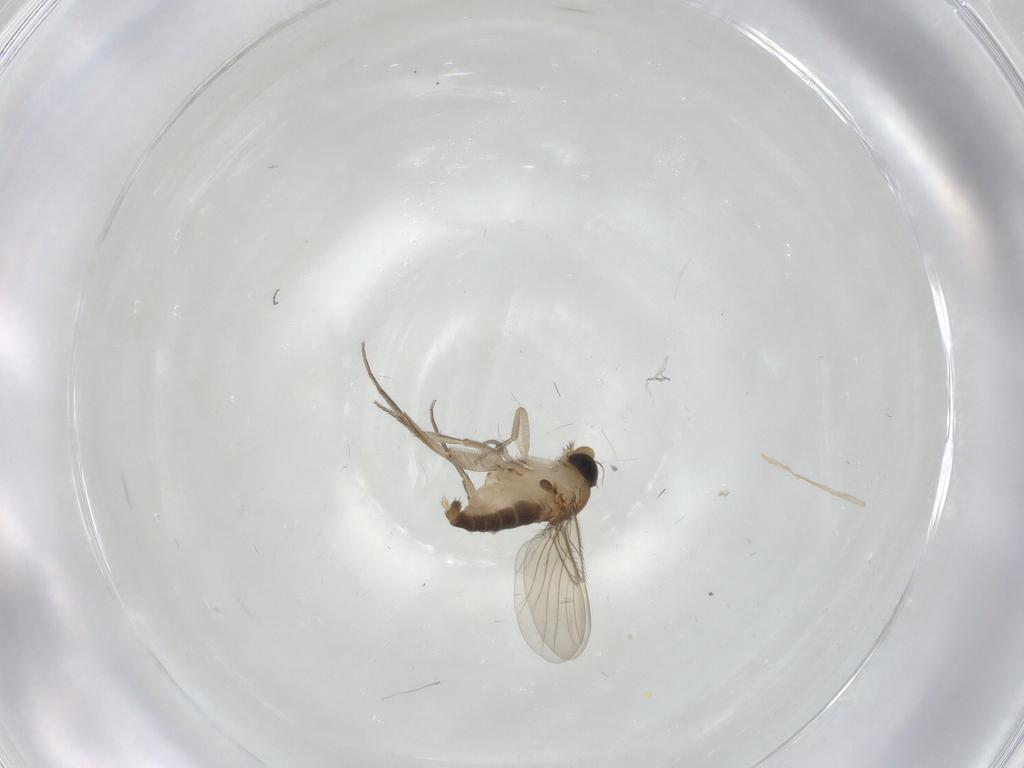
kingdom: Animalia
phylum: Arthropoda
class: Insecta
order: Diptera
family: Phoridae
